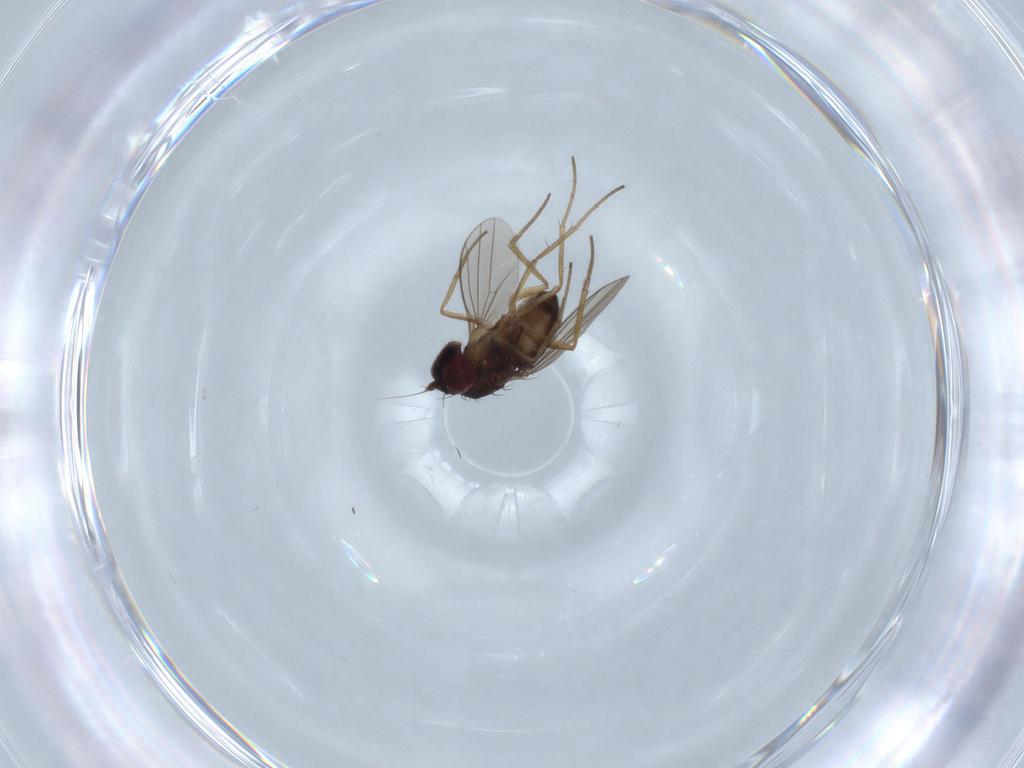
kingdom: Animalia
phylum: Arthropoda
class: Insecta
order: Diptera
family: Dolichopodidae
